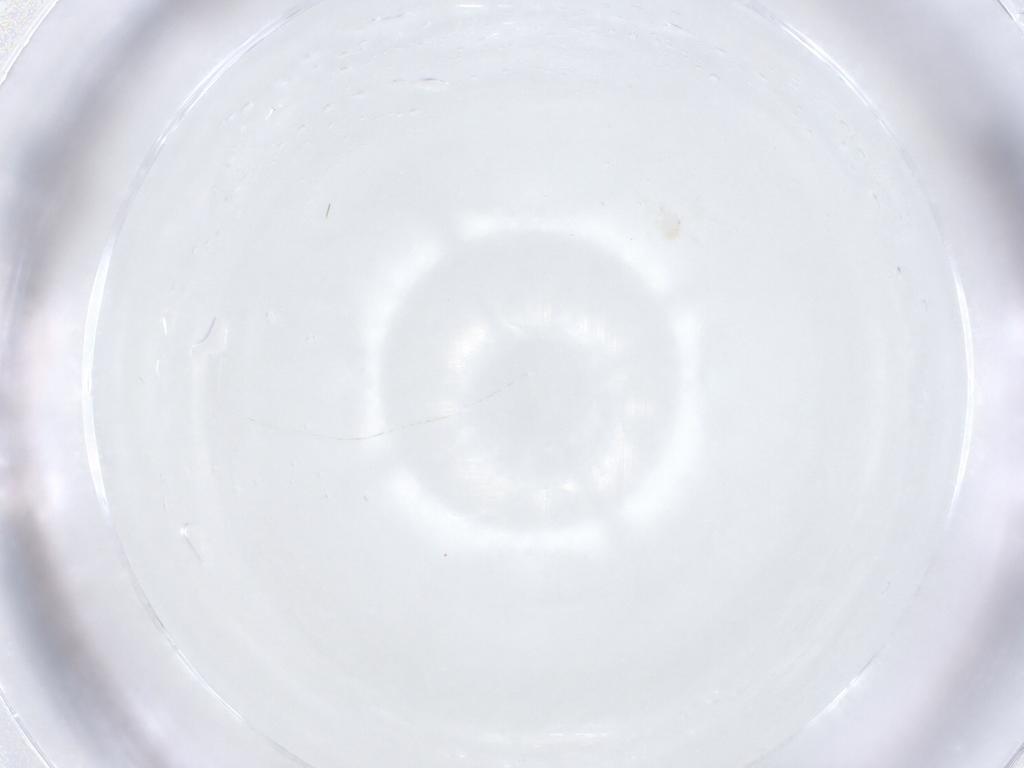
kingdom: Animalia
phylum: Arthropoda
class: Arachnida
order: Trombidiformes
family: Anystidae
